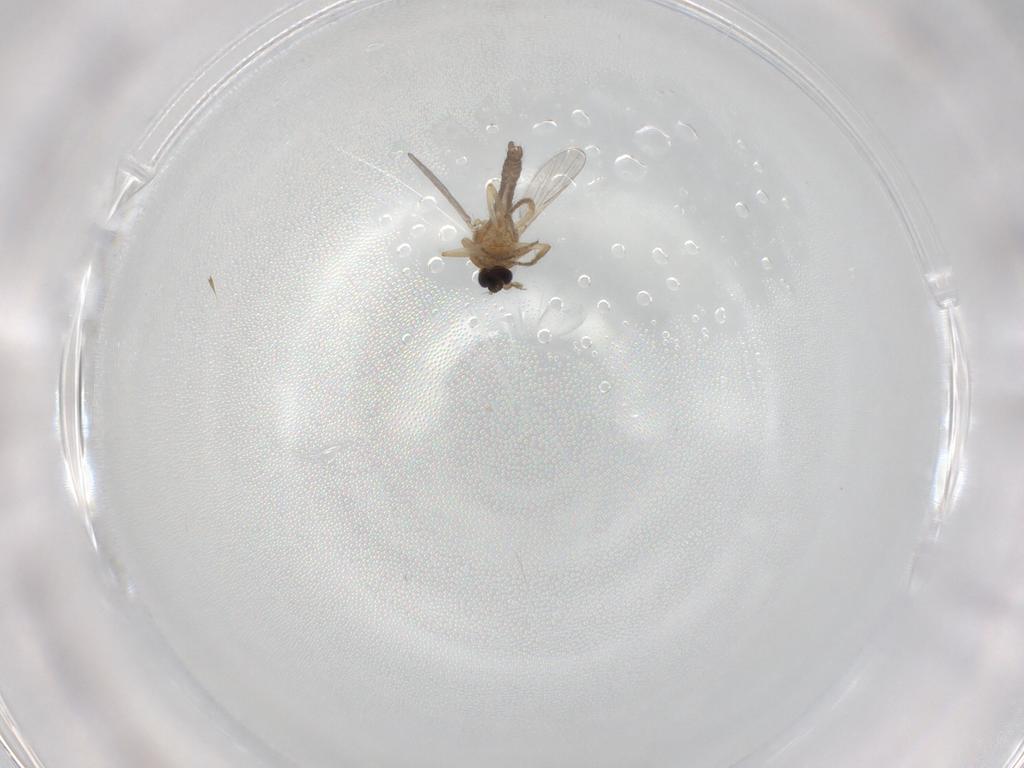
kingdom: Animalia
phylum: Arthropoda
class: Insecta
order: Diptera
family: Ceratopogonidae
